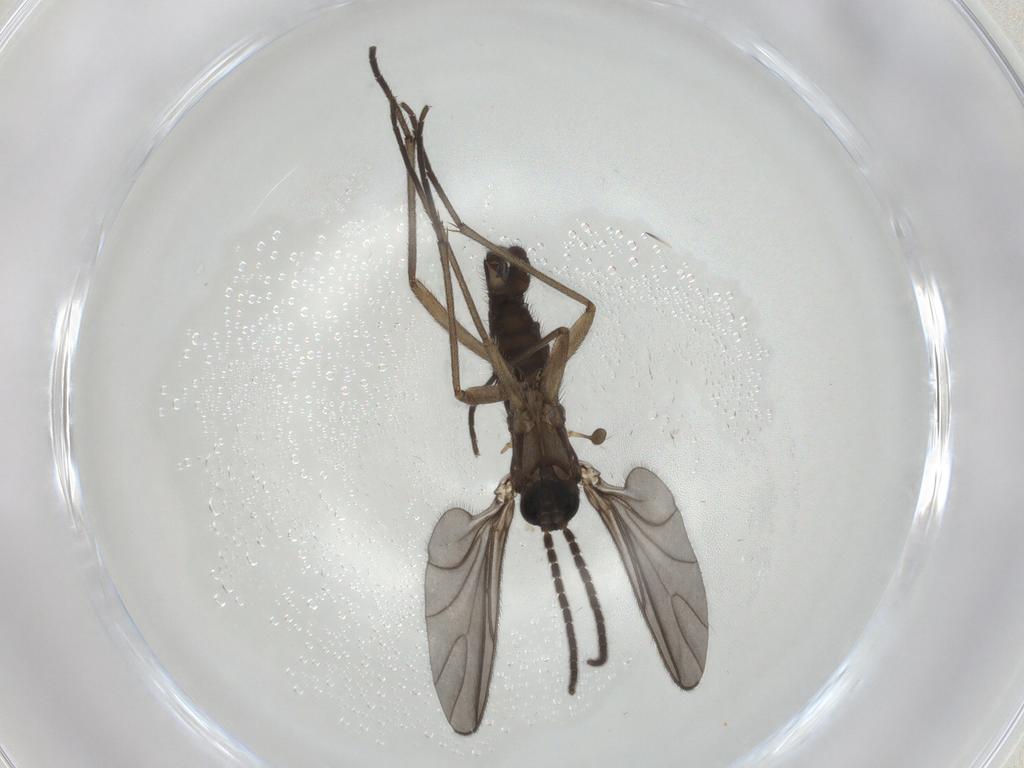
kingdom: Animalia
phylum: Arthropoda
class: Insecta
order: Diptera
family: Sciaridae
